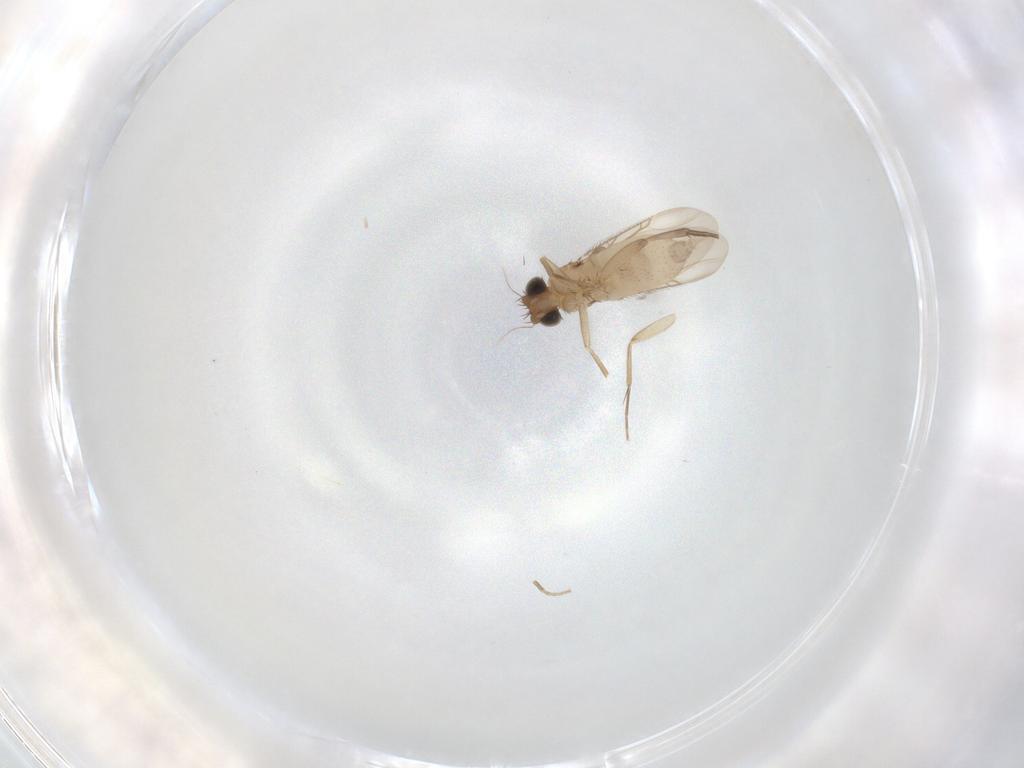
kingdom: Animalia
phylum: Arthropoda
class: Insecta
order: Diptera
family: Phoridae
